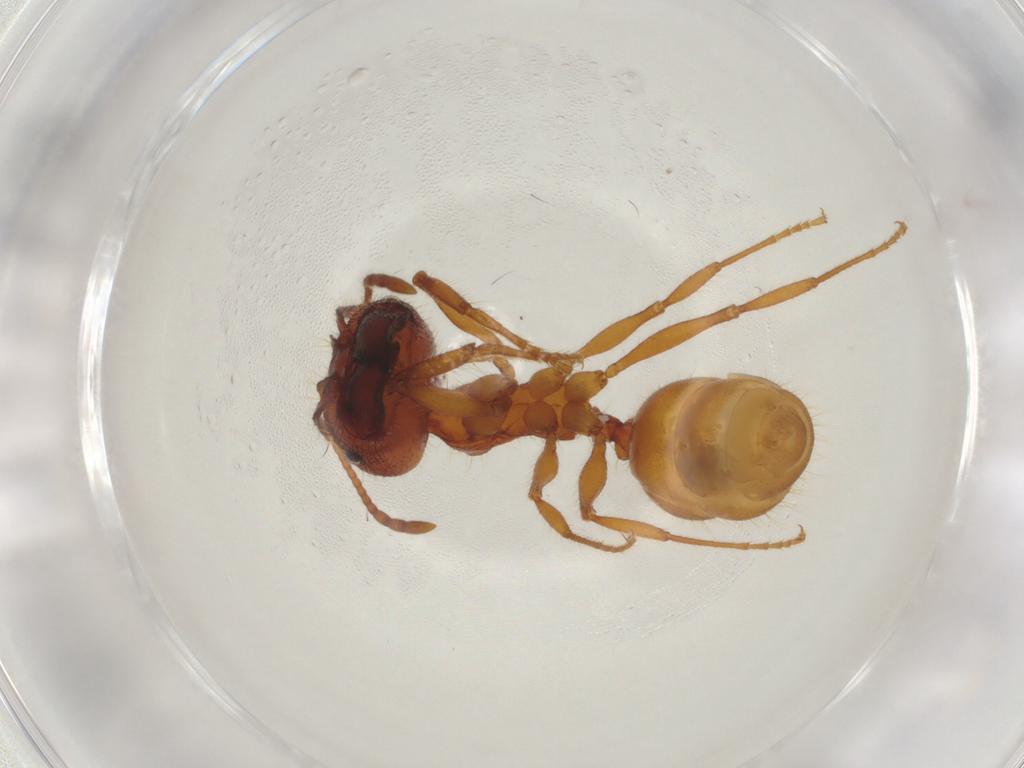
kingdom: Animalia
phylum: Arthropoda
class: Insecta
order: Hymenoptera
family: Formicidae
